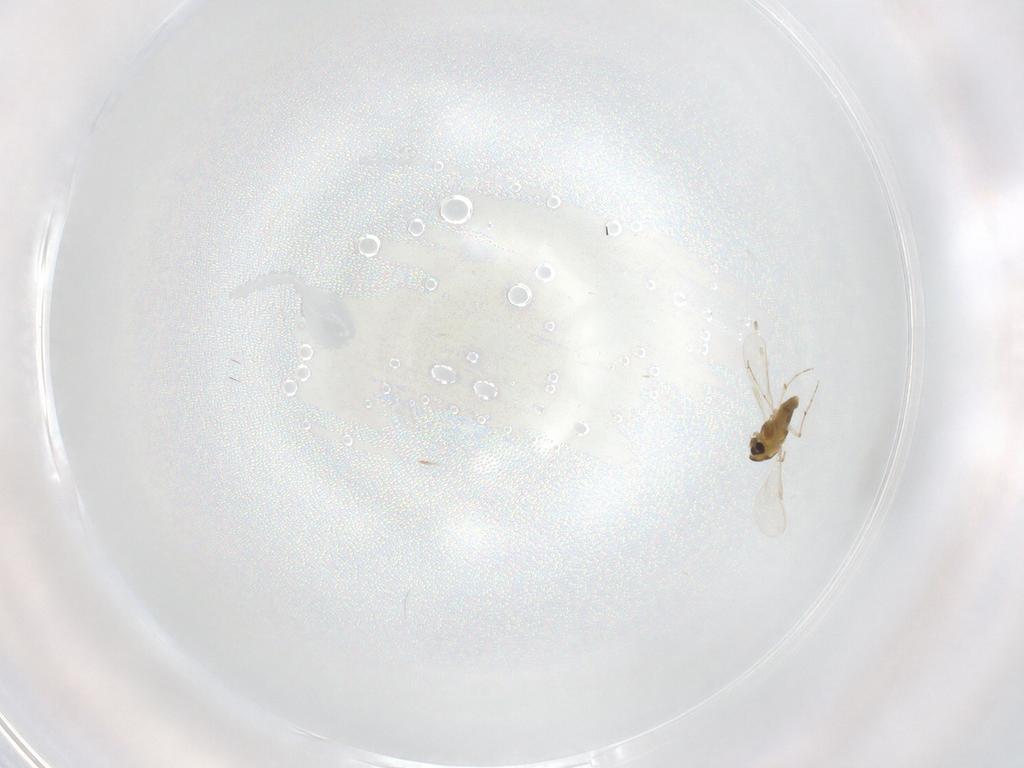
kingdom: Animalia
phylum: Arthropoda
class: Insecta
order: Diptera
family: Chironomidae
